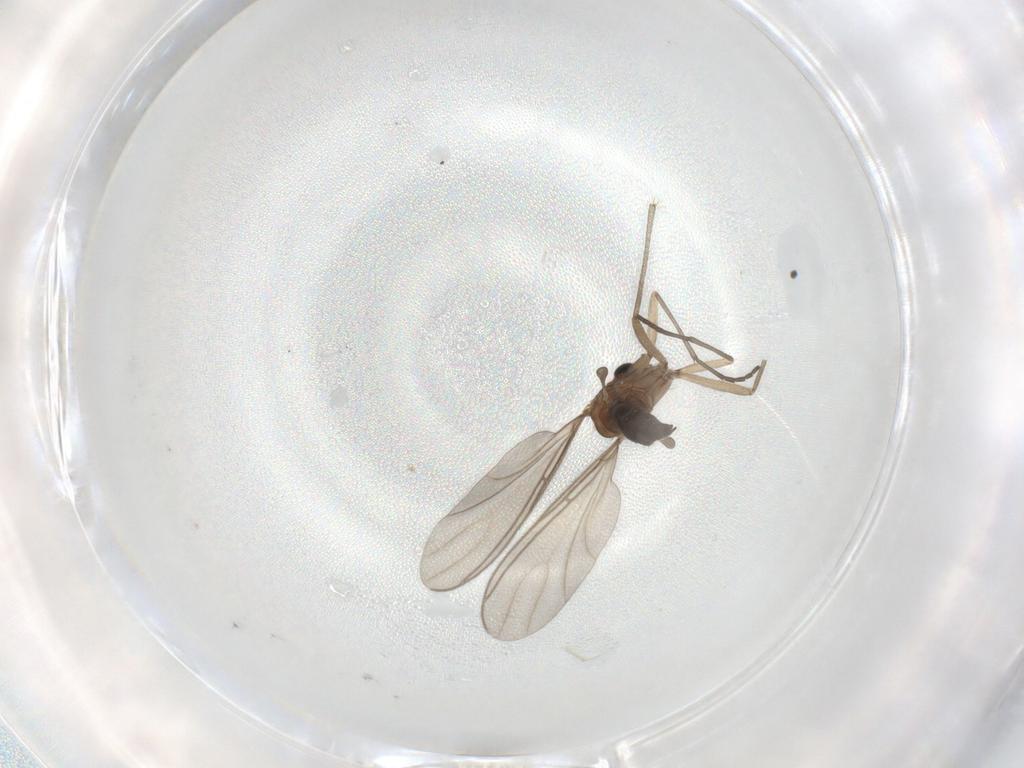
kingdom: Animalia
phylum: Arthropoda
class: Insecta
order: Diptera
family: Sciaridae
